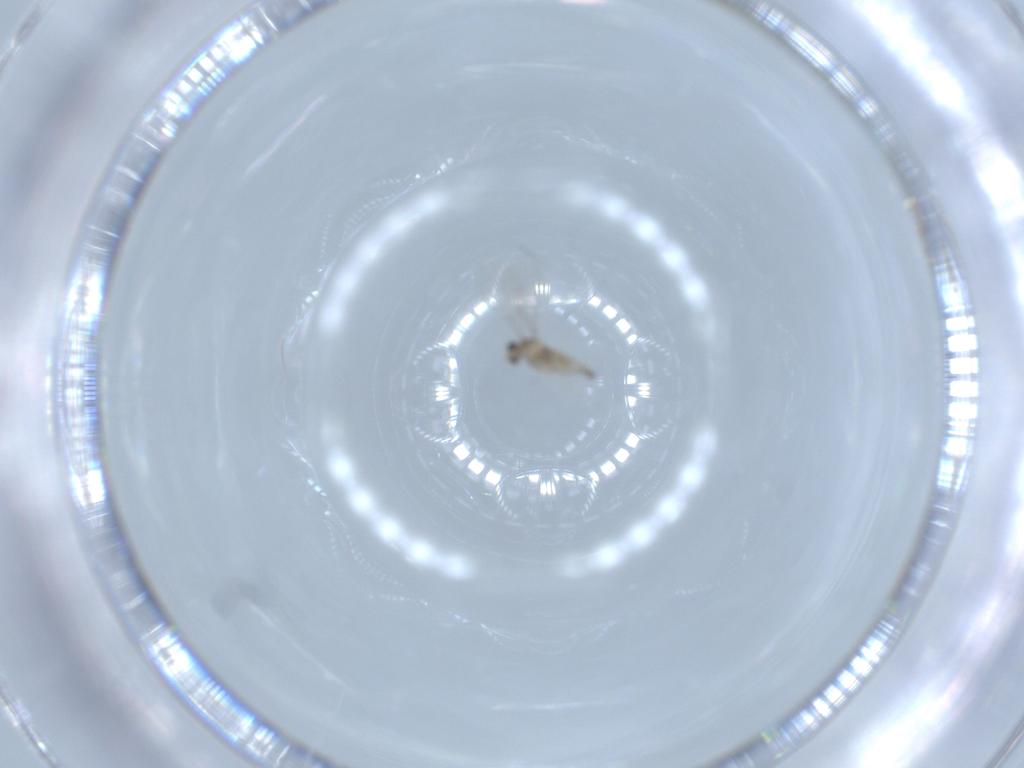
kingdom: Animalia
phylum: Arthropoda
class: Insecta
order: Diptera
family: Cecidomyiidae
